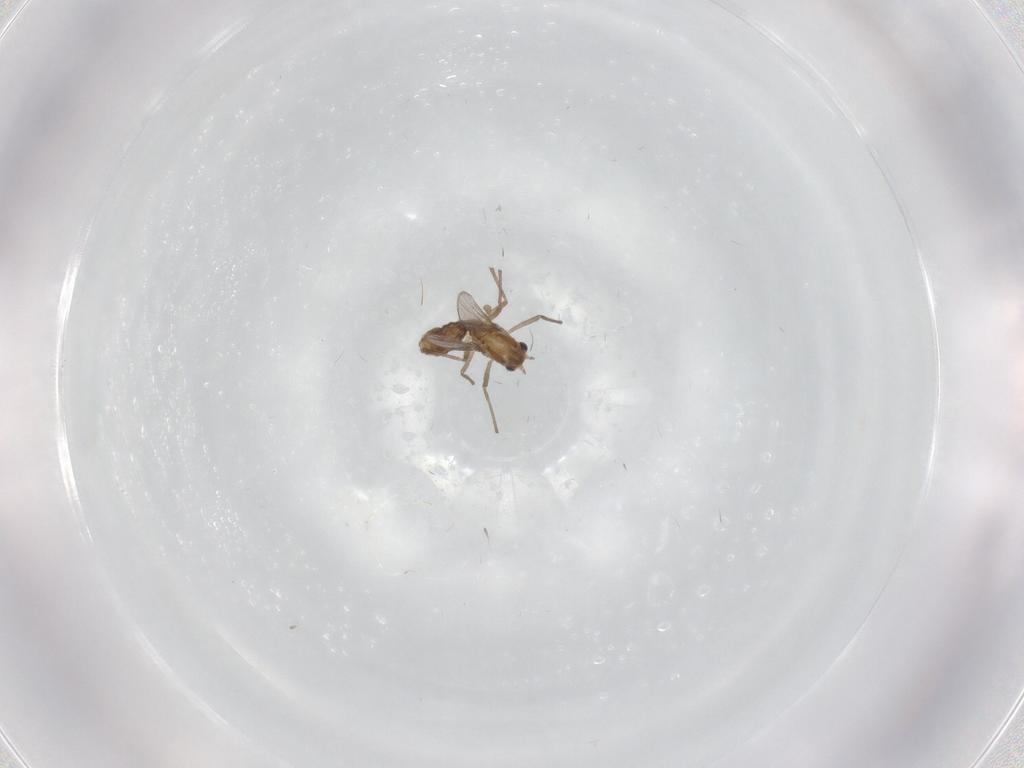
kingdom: Animalia
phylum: Arthropoda
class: Insecta
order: Diptera
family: Chironomidae
